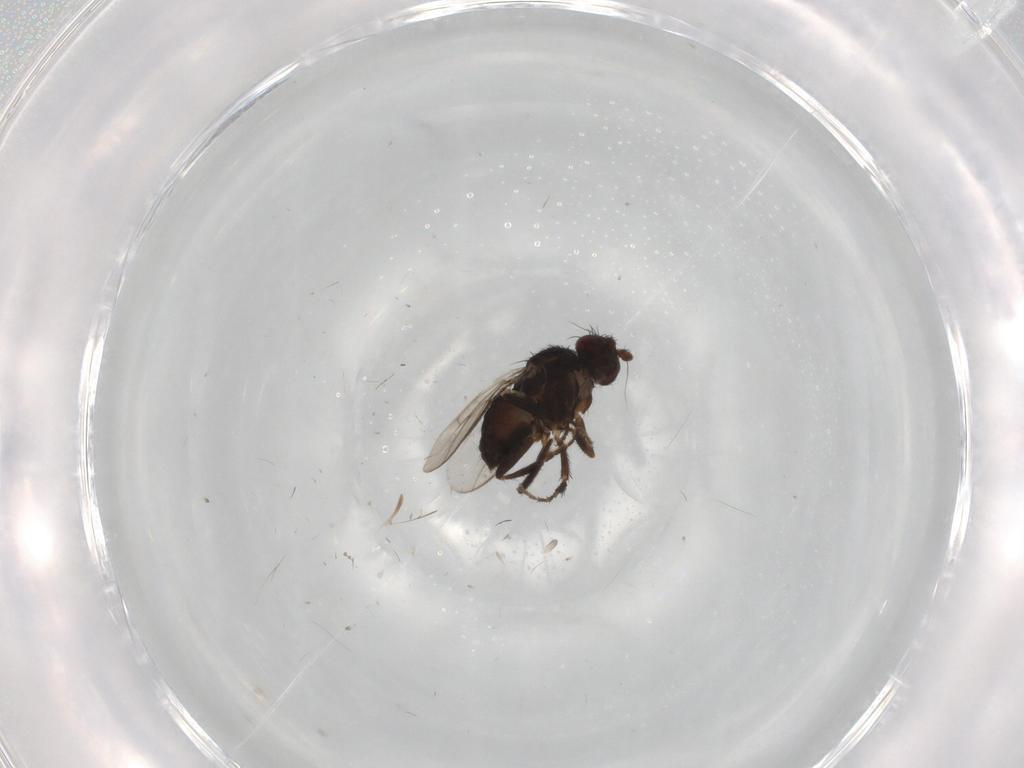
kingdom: Animalia
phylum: Arthropoda
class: Insecta
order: Diptera
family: Sphaeroceridae
